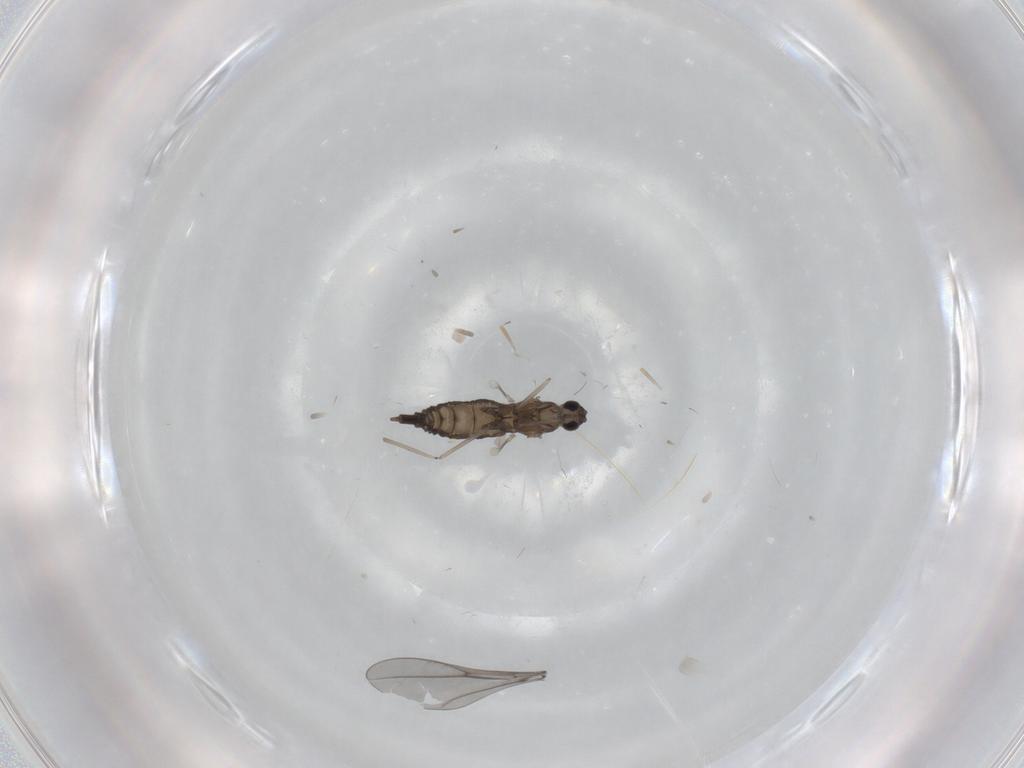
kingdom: Animalia
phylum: Arthropoda
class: Insecta
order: Diptera
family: Cecidomyiidae
